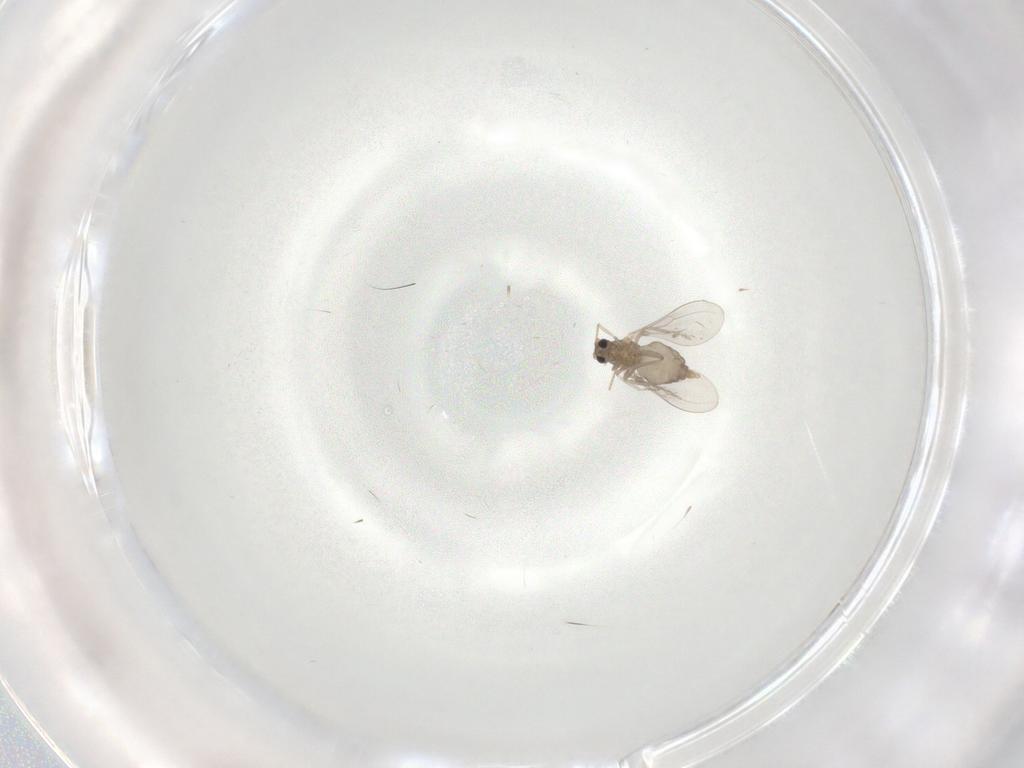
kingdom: Animalia
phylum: Arthropoda
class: Insecta
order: Diptera
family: Cecidomyiidae
